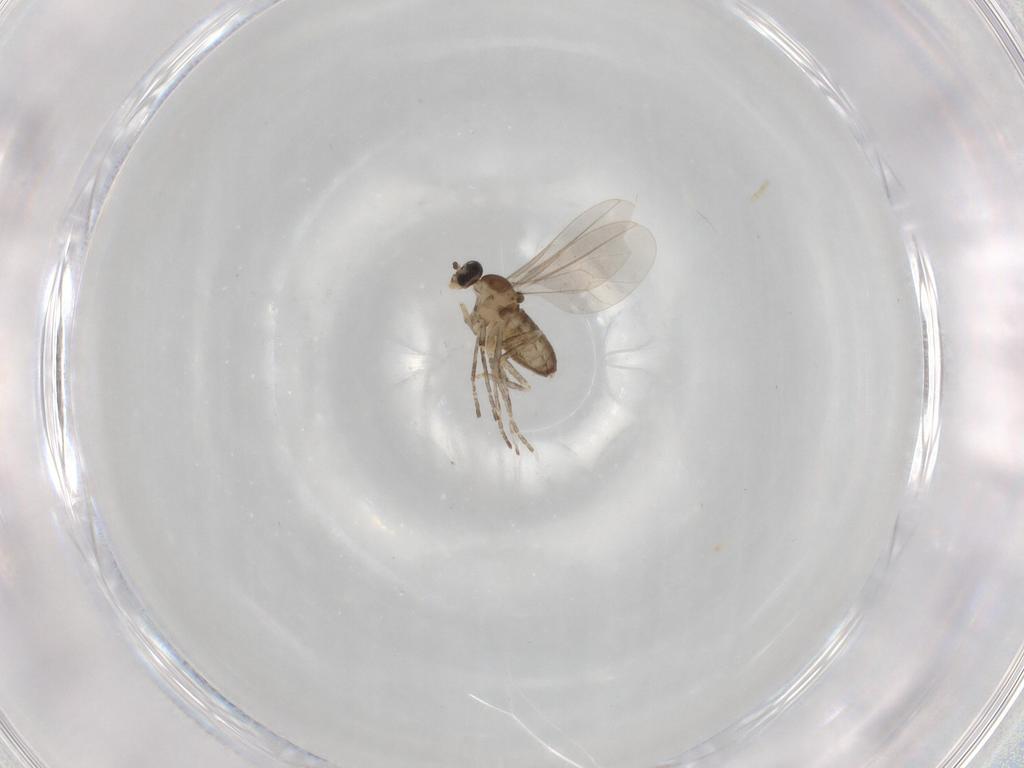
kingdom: Animalia
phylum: Arthropoda
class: Insecta
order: Diptera
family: Cecidomyiidae
